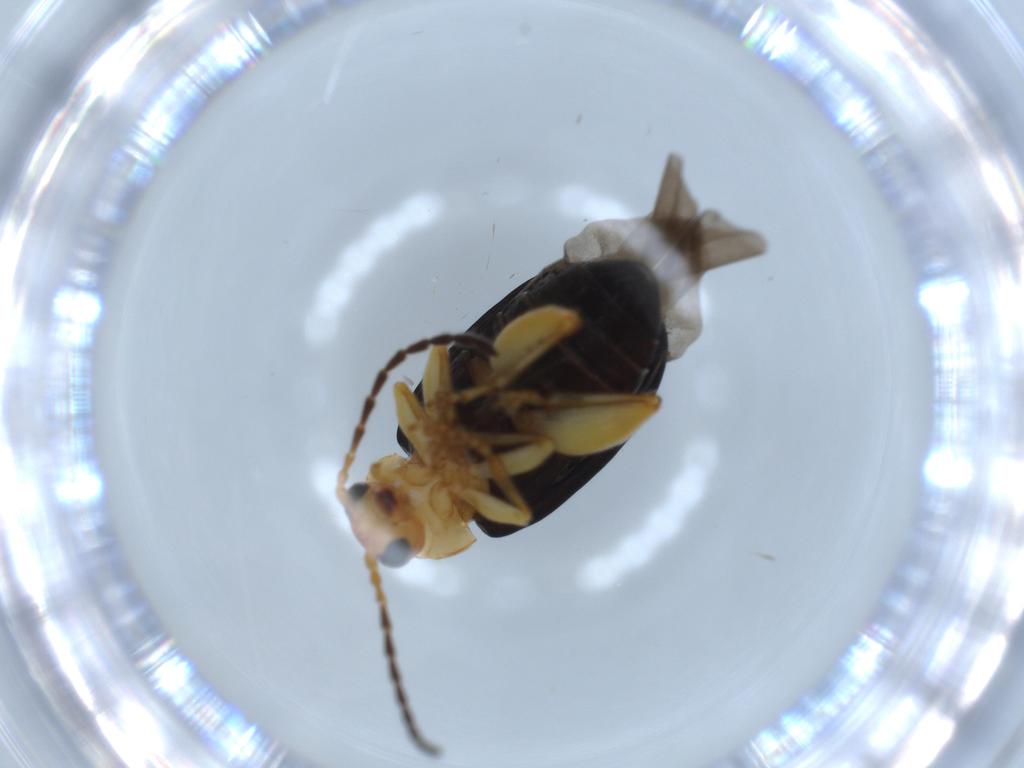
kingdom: Animalia
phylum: Arthropoda
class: Insecta
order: Coleoptera
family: Chrysomelidae
